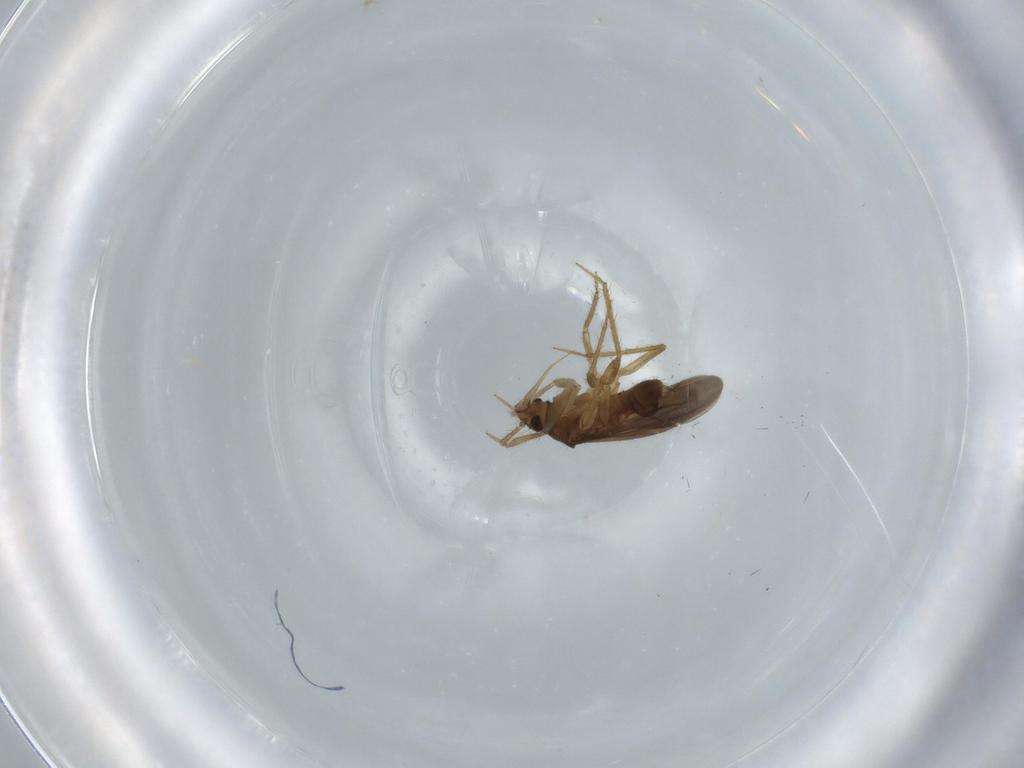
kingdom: Animalia
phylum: Arthropoda
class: Insecta
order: Hemiptera
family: Ceratocombidae
